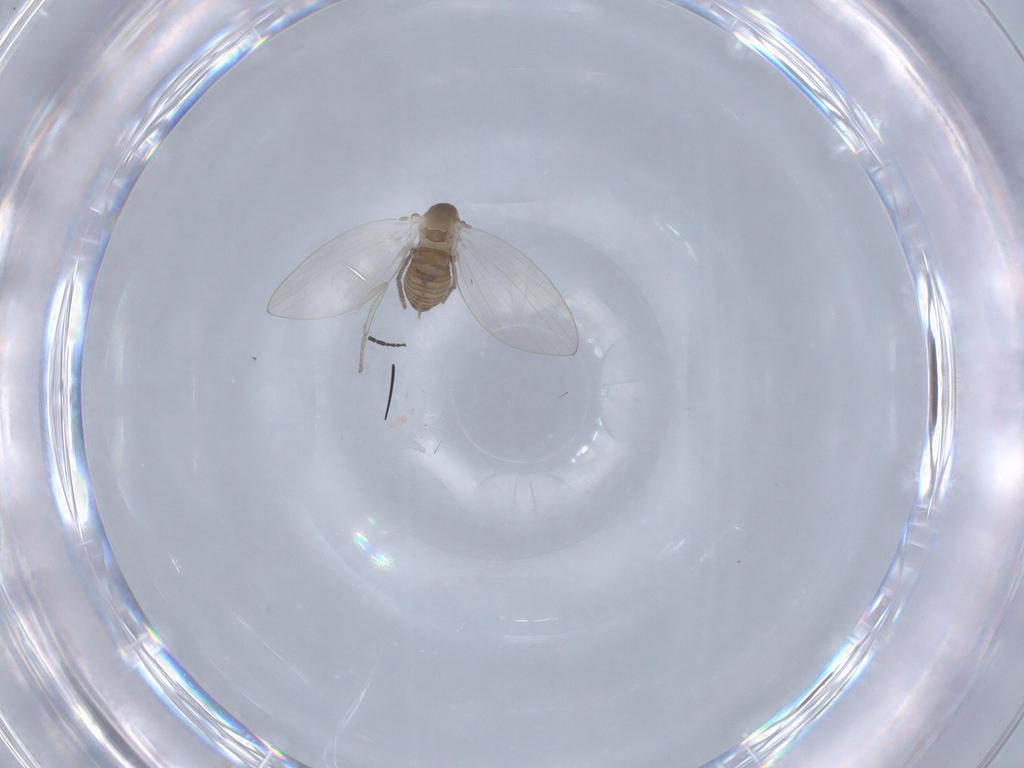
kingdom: Animalia
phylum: Arthropoda
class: Insecta
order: Diptera
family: Psychodidae
